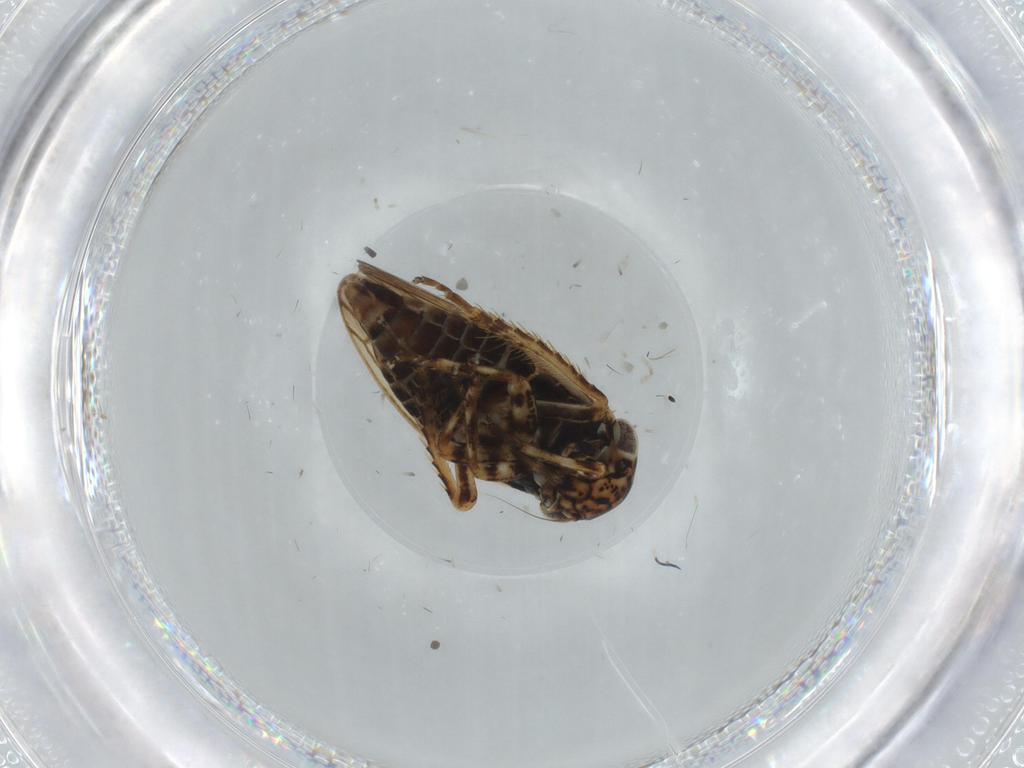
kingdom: Animalia
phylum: Arthropoda
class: Insecta
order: Hemiptera
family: Cicadellidae
